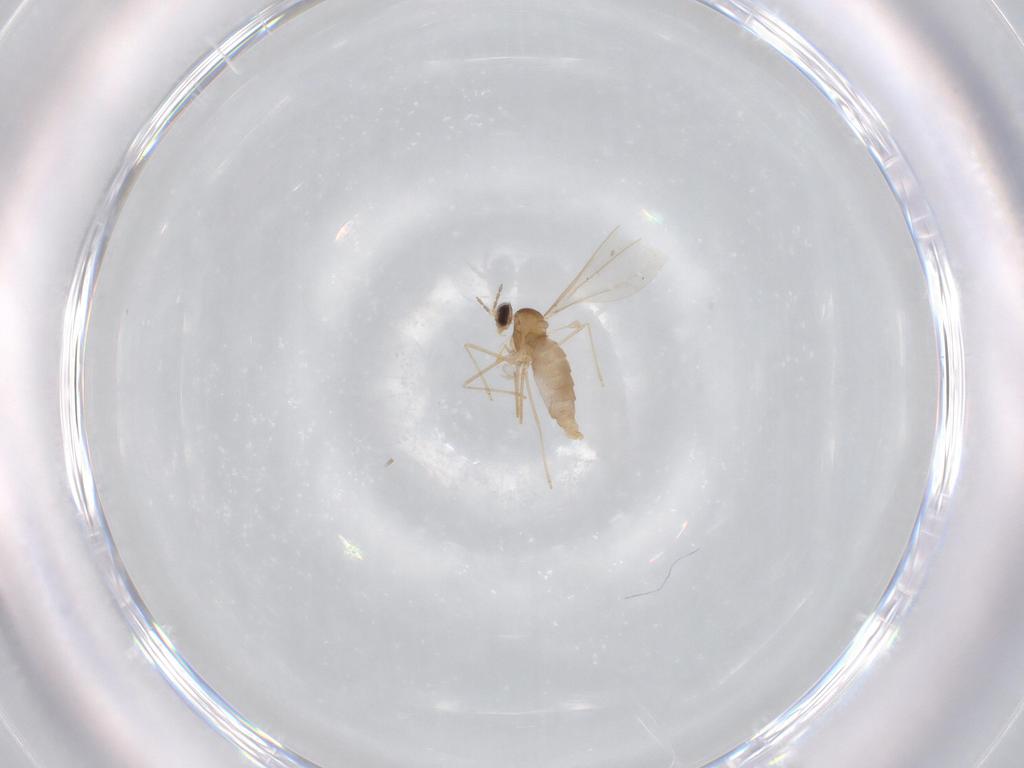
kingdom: Animalia
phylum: Arthropoda
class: Insecta
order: Diptera
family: Cecidomyiidae
